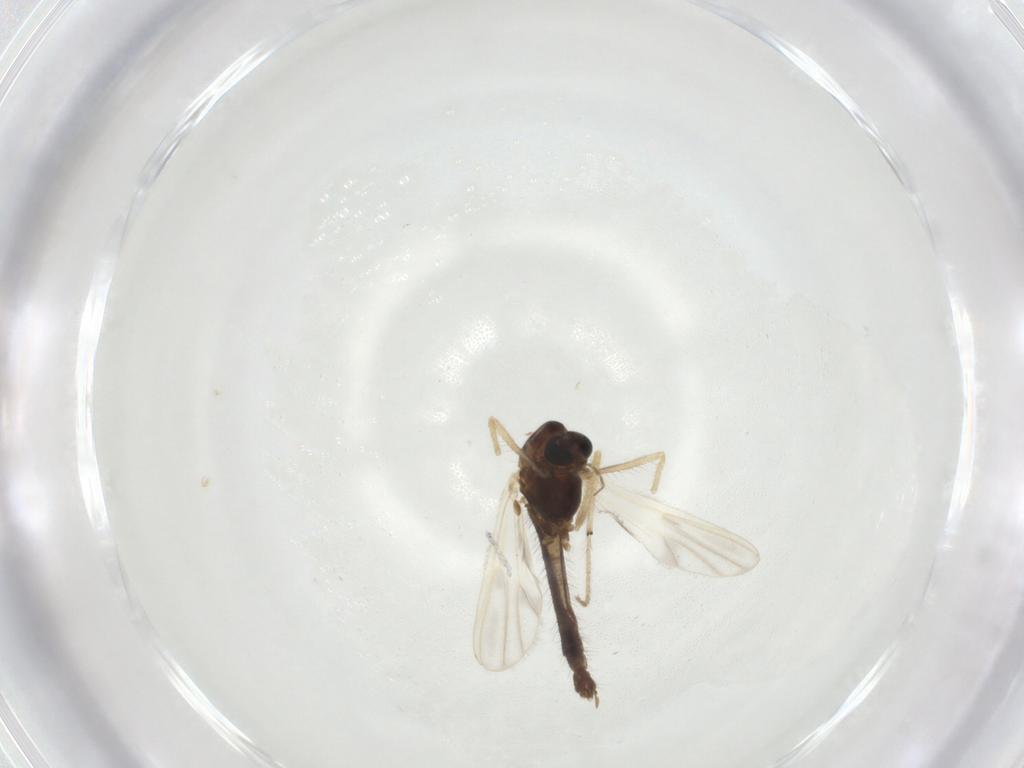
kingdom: Animalia
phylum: Arthropoda
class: Insecta
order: Diptera
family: Chironomidae
